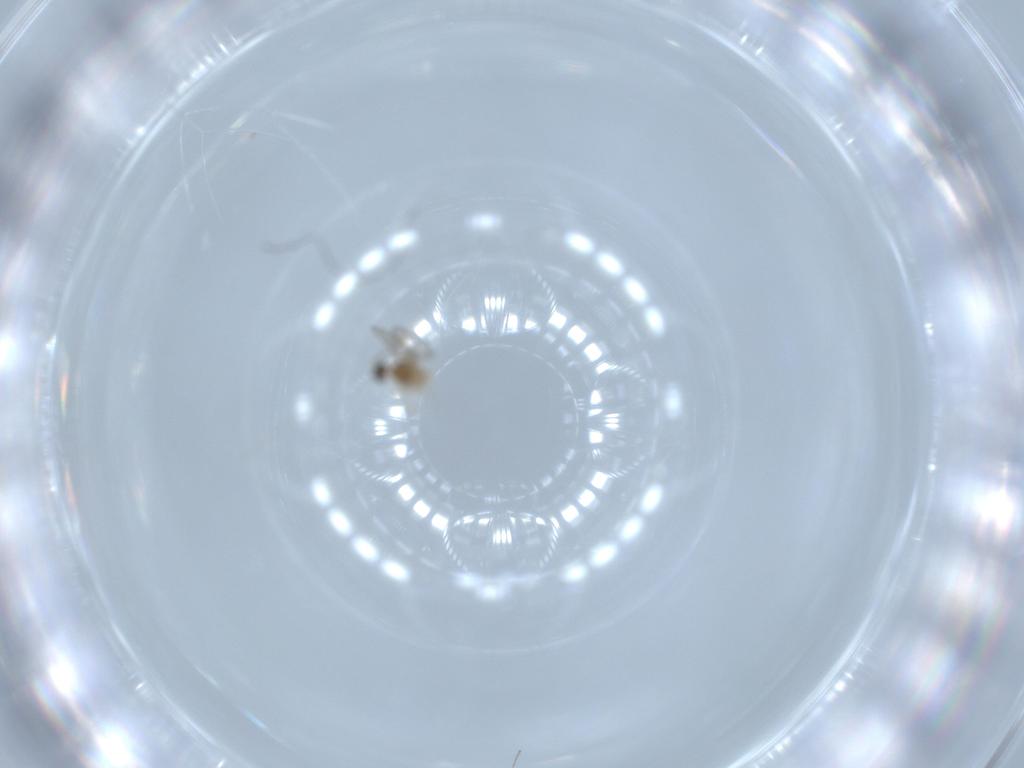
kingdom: Animalia
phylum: Arthropoda
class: Insecta
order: Diptera
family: Cecidomyiidae
